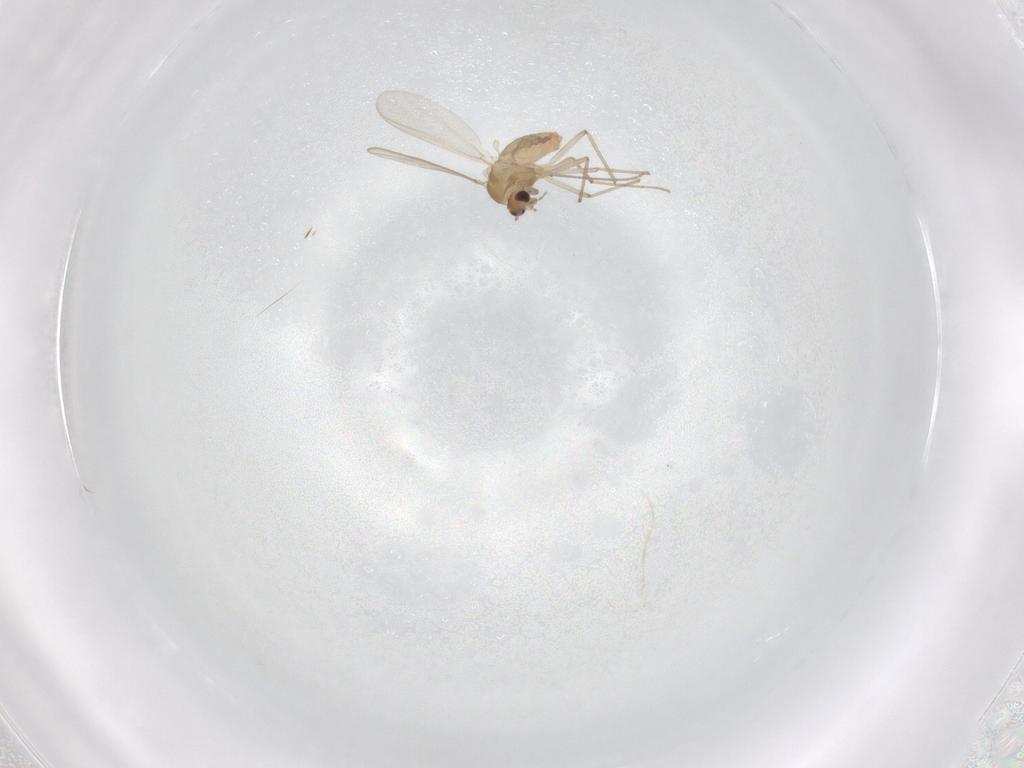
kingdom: Animalia
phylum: Arthropoda
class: Insecta
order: Diptera
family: Chironomidae
